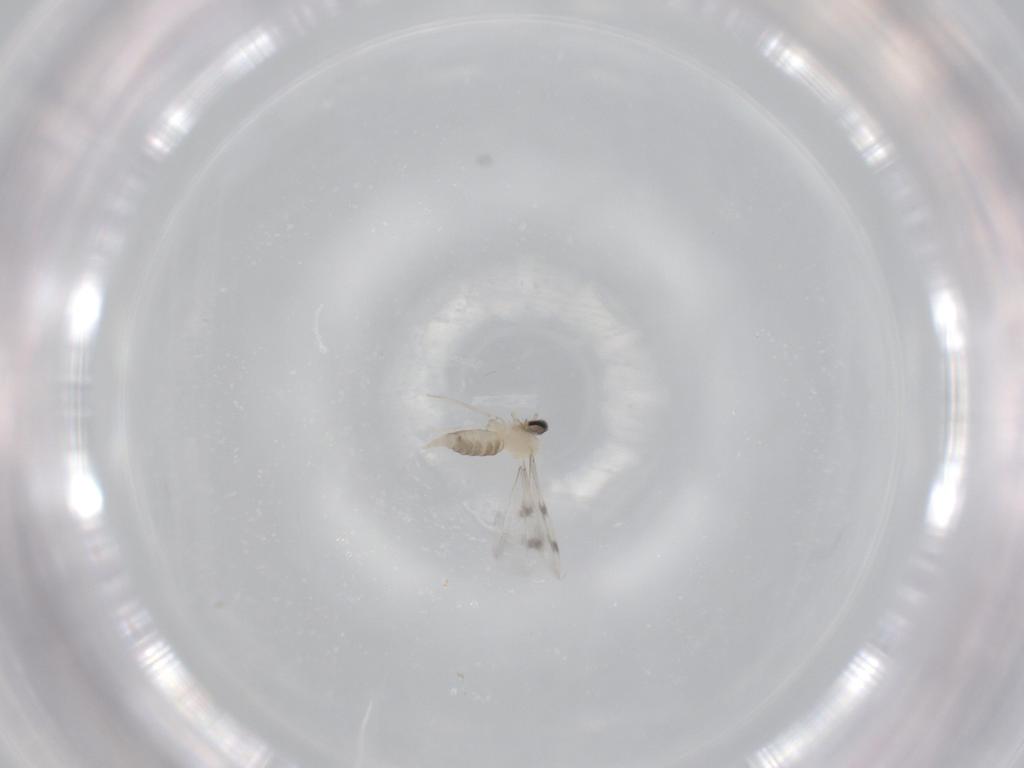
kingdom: Animalia
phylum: Arthropoda
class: Insecta
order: Diptera
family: Cecidomyiidae
